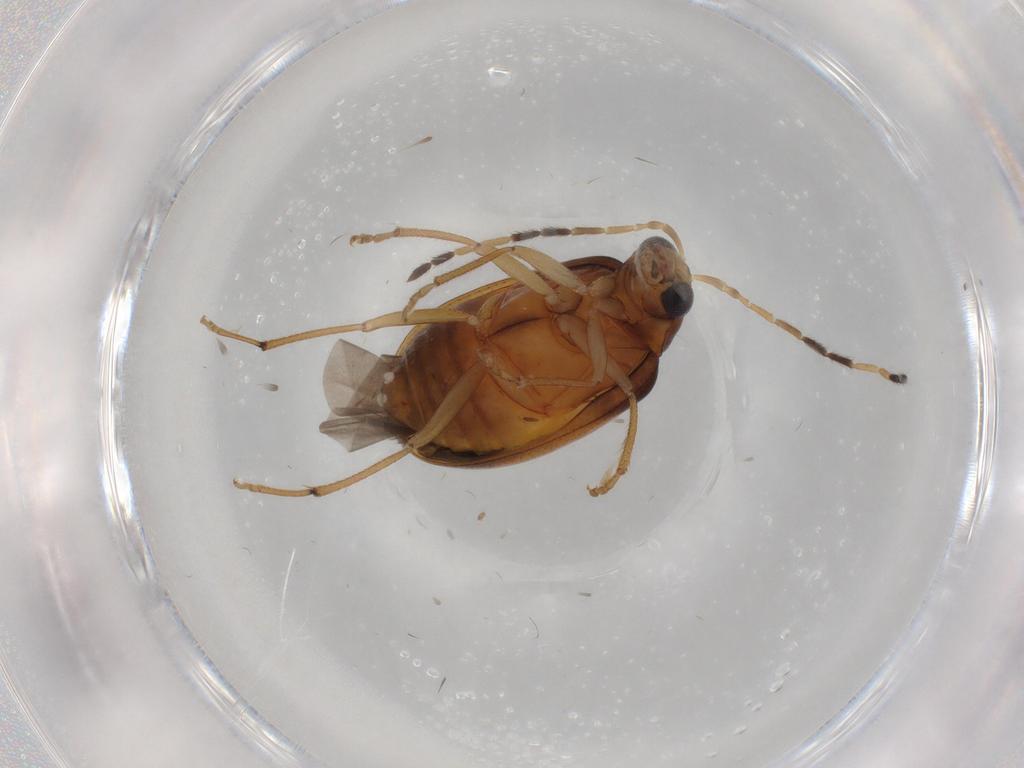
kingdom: Animalia
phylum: Arthropoda
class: Insecta
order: Coleoptera
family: Chrysomelidae
